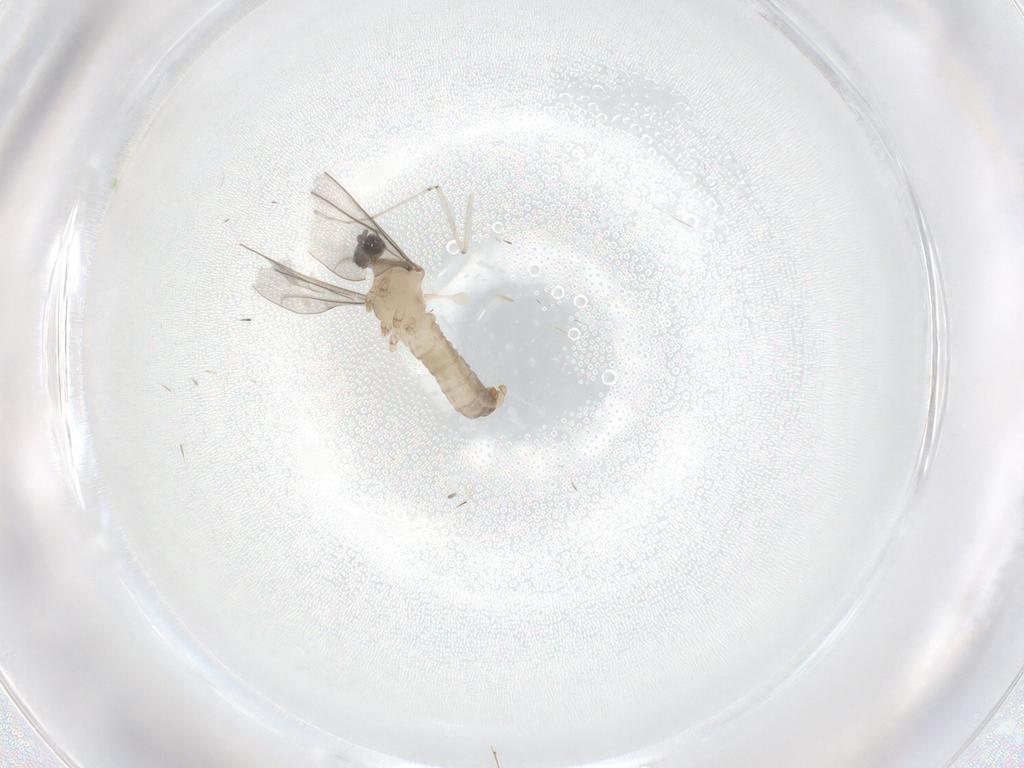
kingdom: Animalia
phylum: Arthropoda
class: Insecta
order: Diptera
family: Cecidomyiidae
